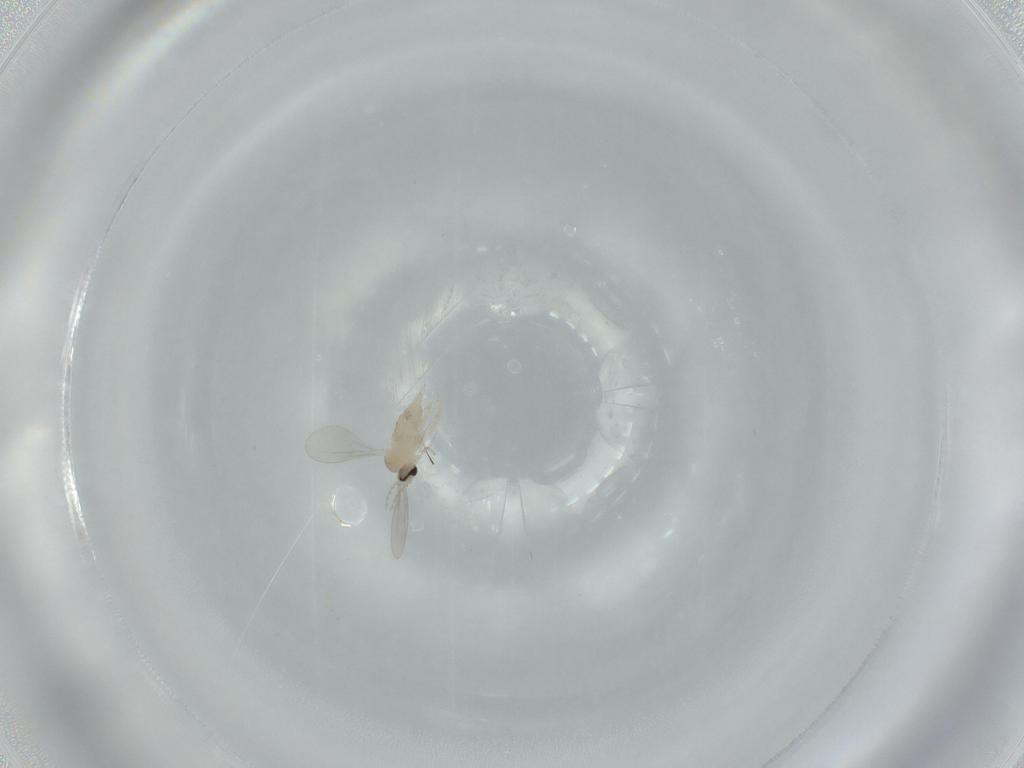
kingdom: Animalia
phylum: Arthropoda
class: Insecta
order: Diptera
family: Cecidomyiidae
